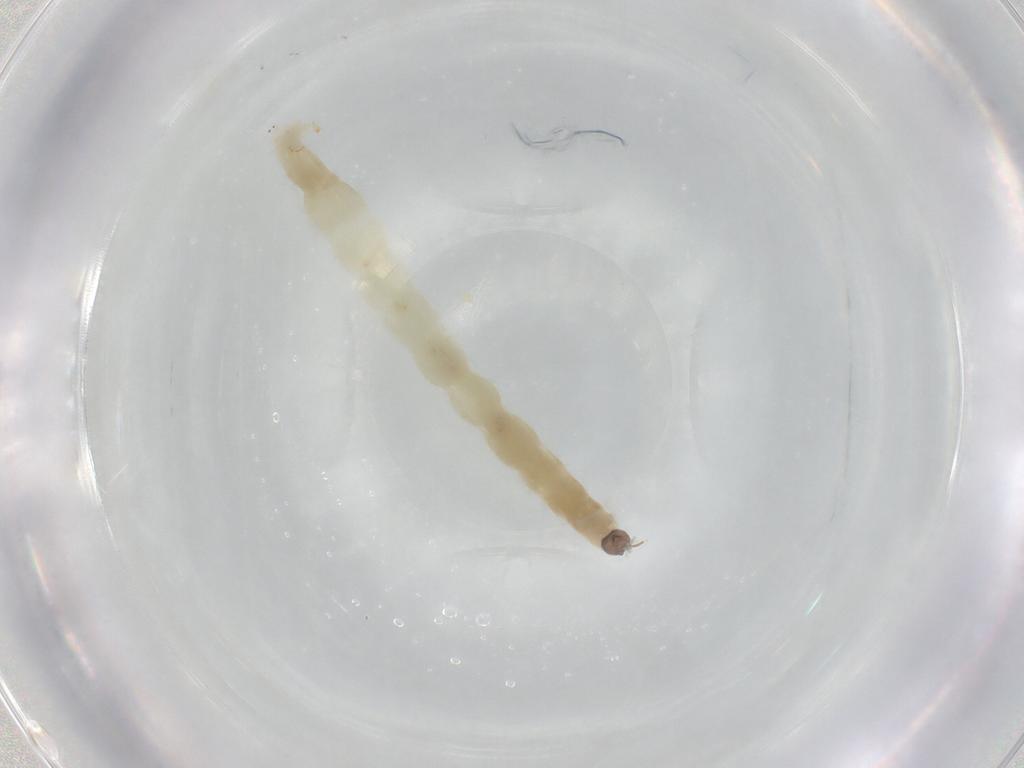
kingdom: Animalia
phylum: Arthropoda
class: Insecta
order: Diptera
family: Chironomidae
